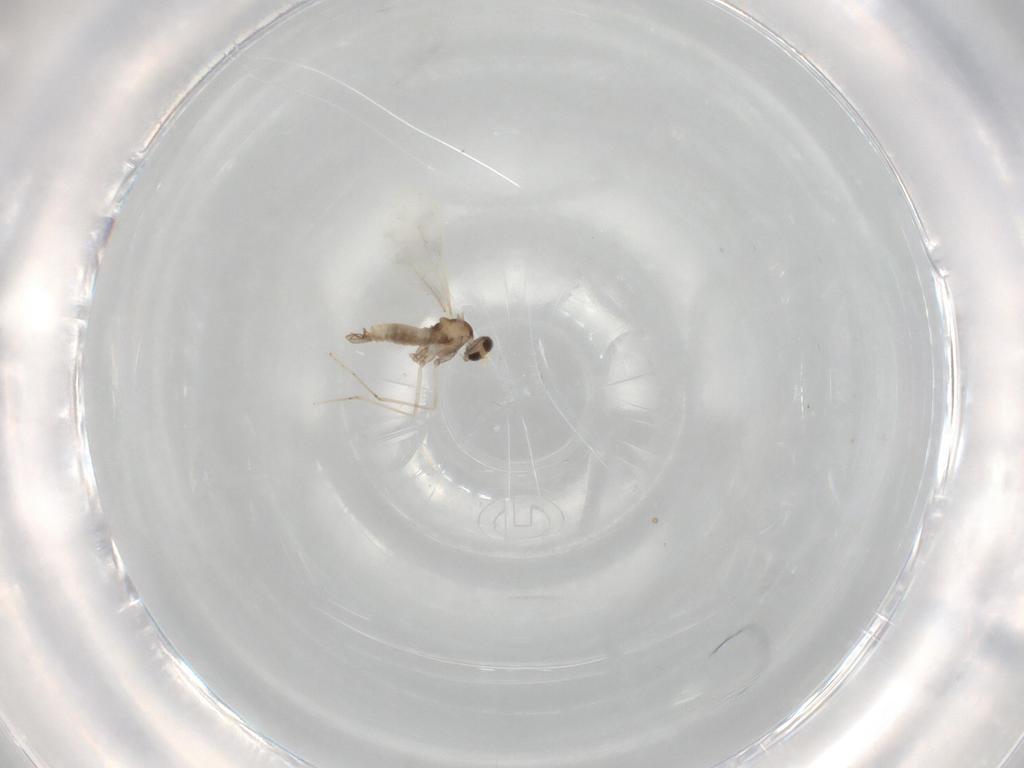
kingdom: Animalia
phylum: Arthropoda
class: Insecta
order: Diptera
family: Cecidomyiidae
